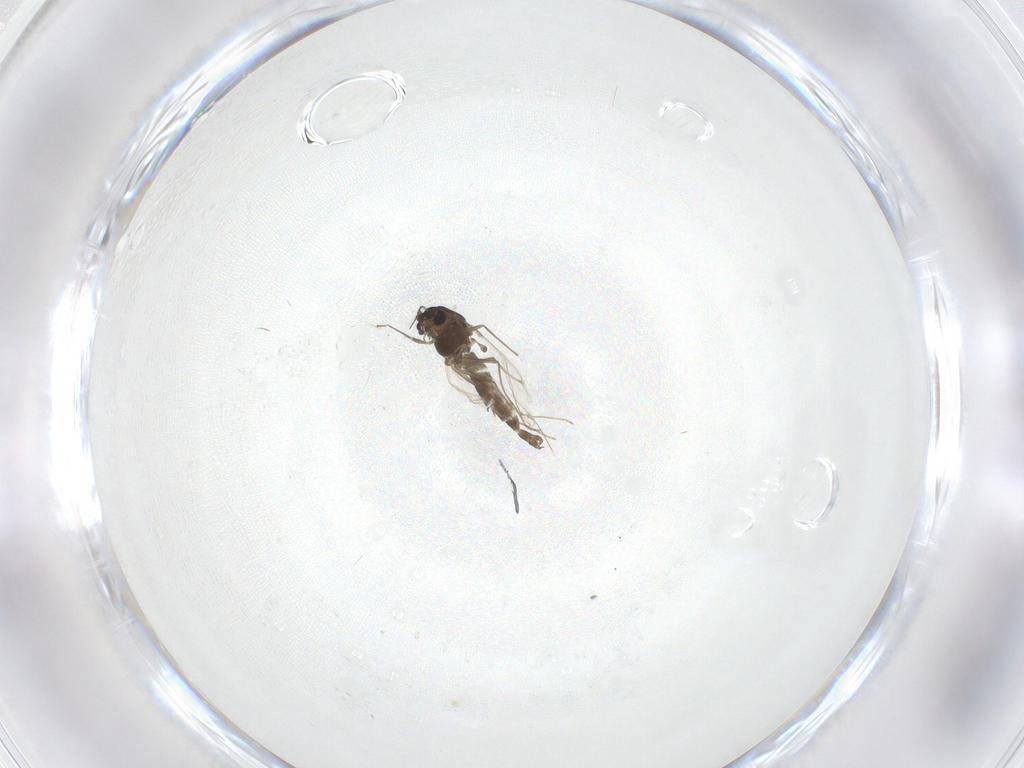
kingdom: Animalia
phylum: Arthropoda
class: Insecta
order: Diptera
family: Chironomidae
